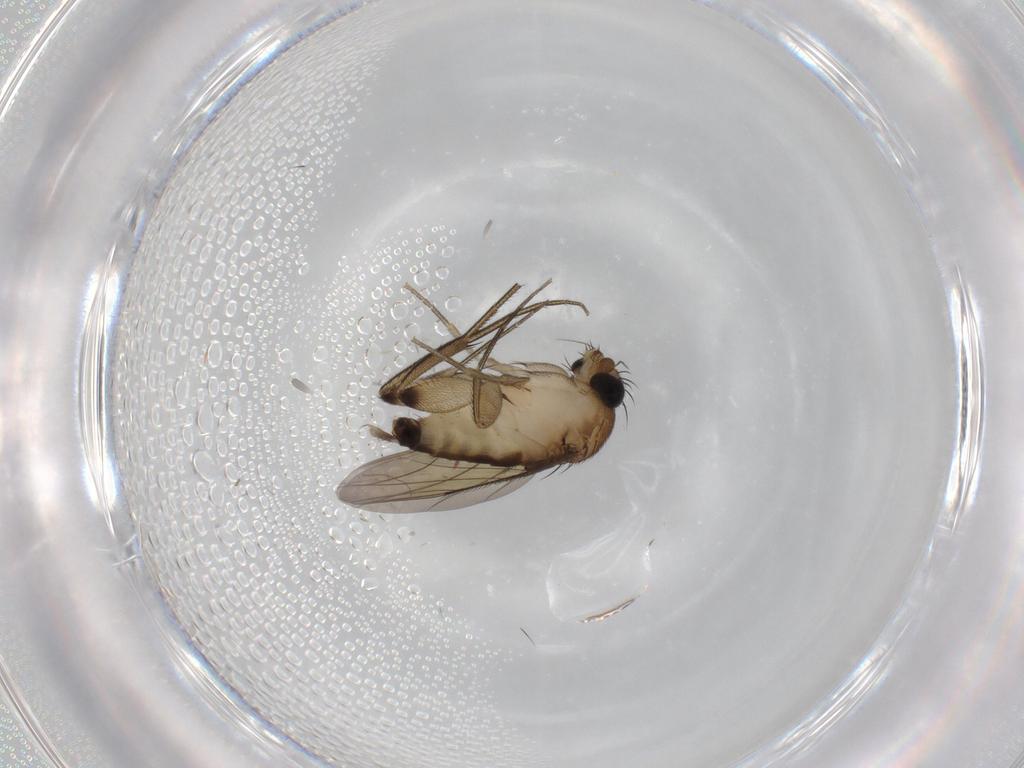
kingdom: Animalia
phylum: Arthropoda
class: Insecta
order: Diptera
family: Phoridae
